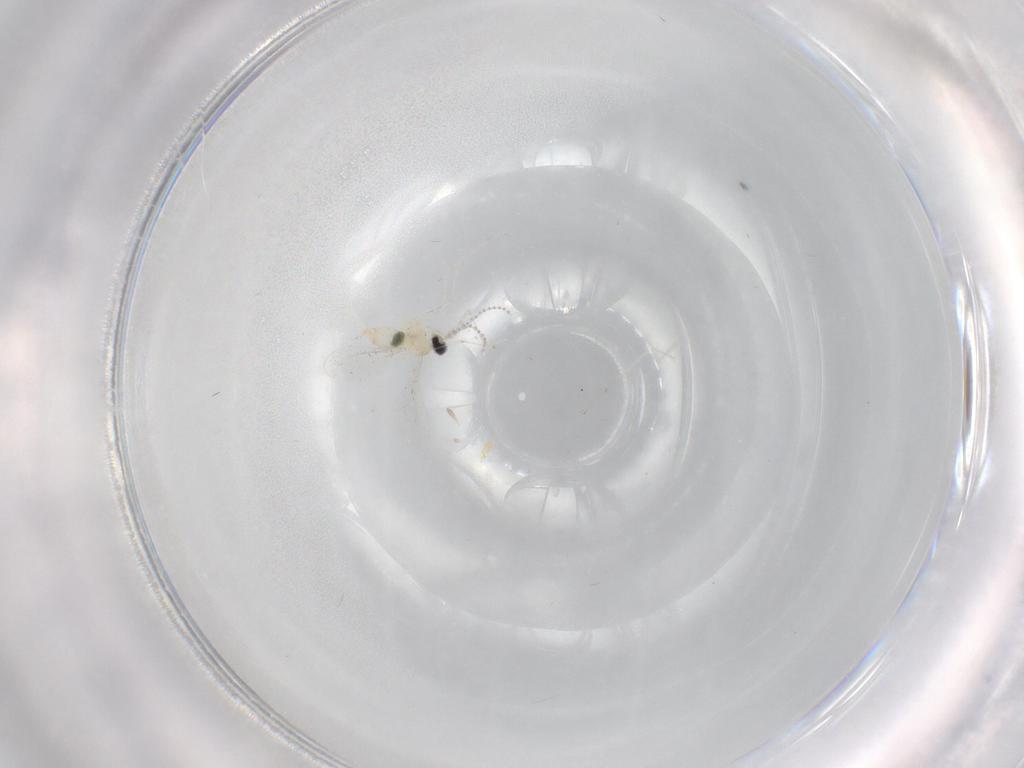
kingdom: Animalia
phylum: Arthropoda
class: Insecta
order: Diptera
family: Cecidomyiidae
